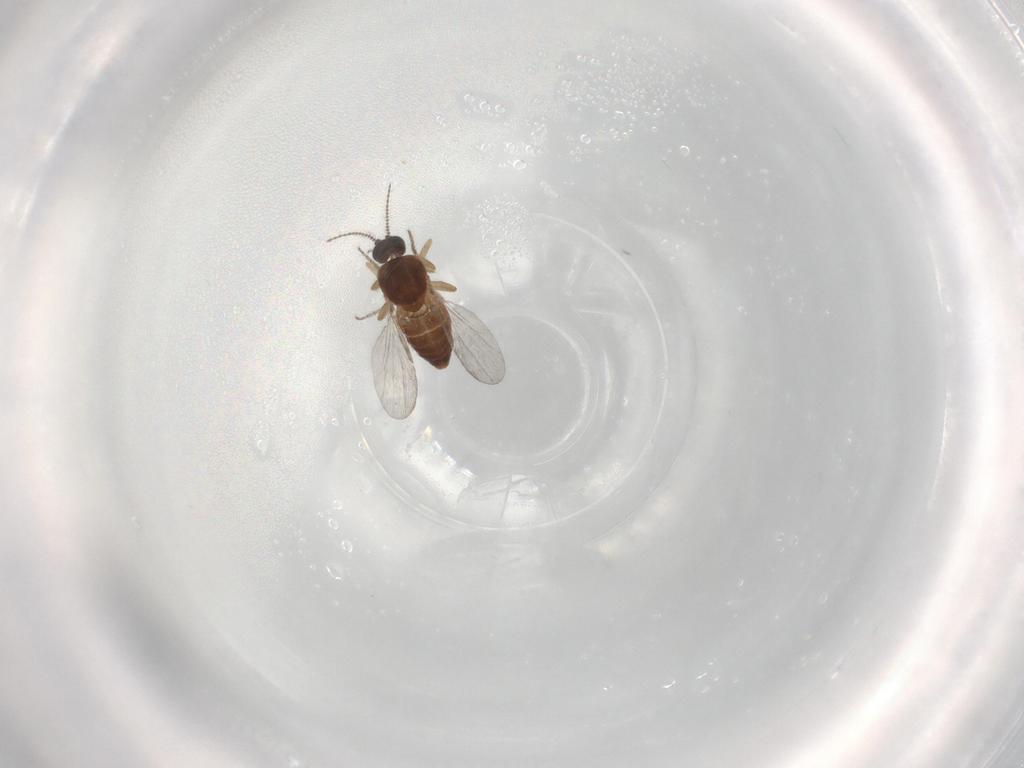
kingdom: Animalia
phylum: Arthropoda
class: Insecta
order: Diptera
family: Ceratopogonidae
